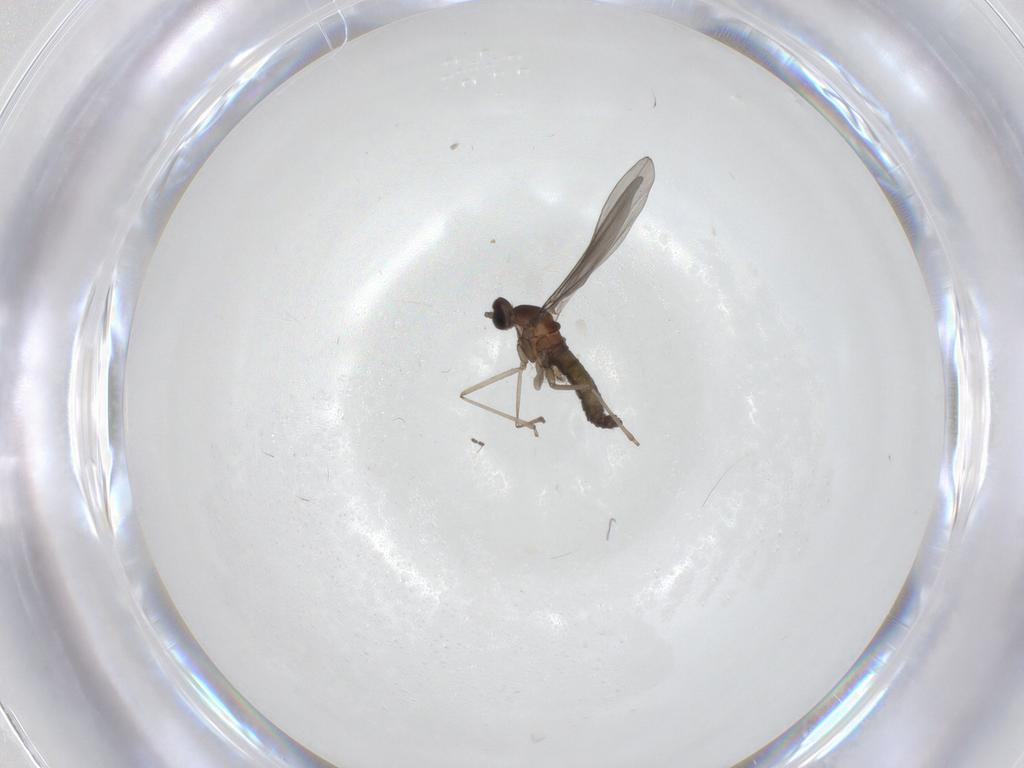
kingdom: Animalia
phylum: Arthropoda
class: Insecta
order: Diptera
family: Cecidomyiidae
